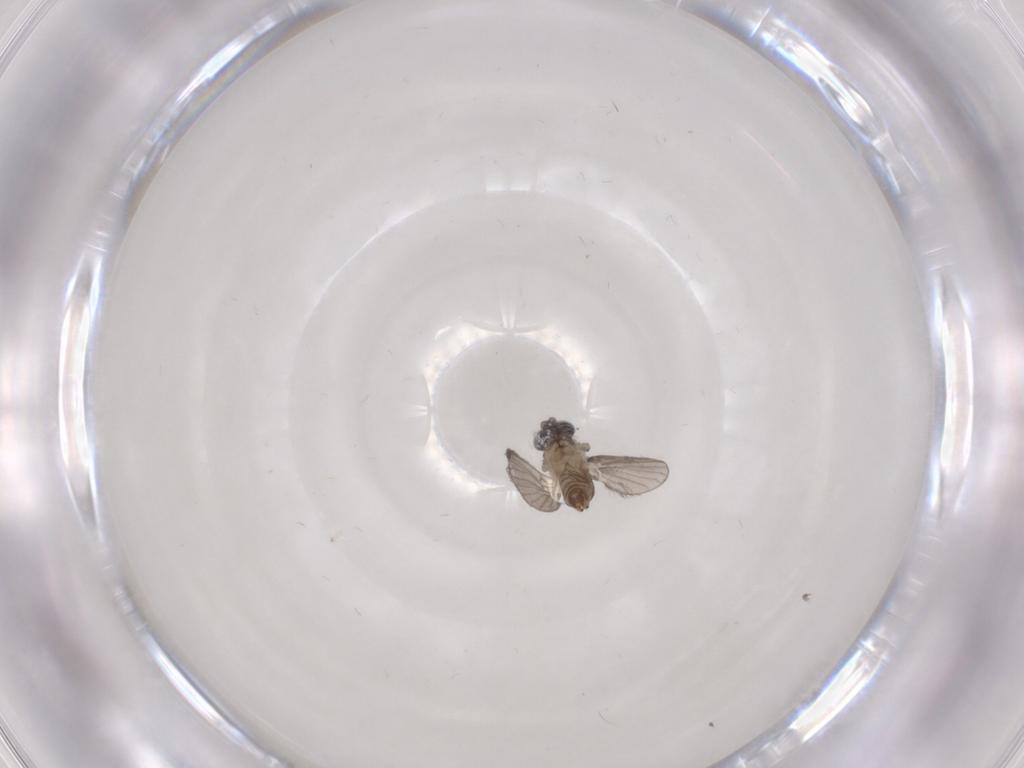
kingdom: Animalia
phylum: Arthropoda
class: Insecta
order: Diptera
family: Psychodidae
